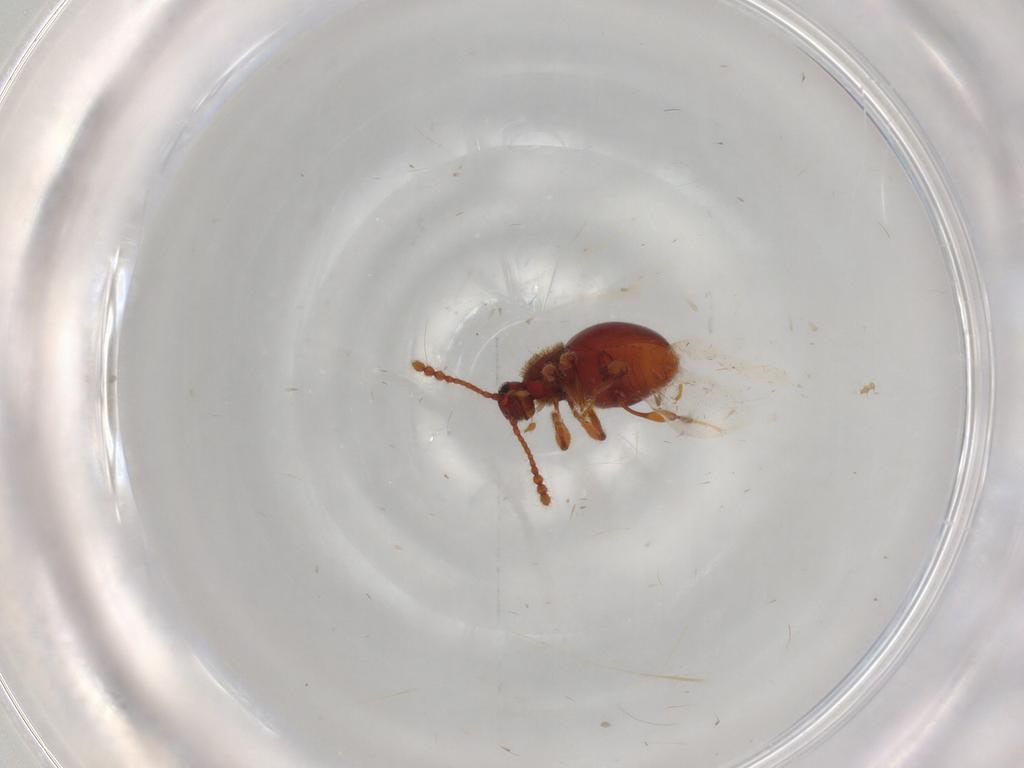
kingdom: Animalia
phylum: Arthropoda
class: Insecta
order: Coleoptera
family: Staphylinidae
